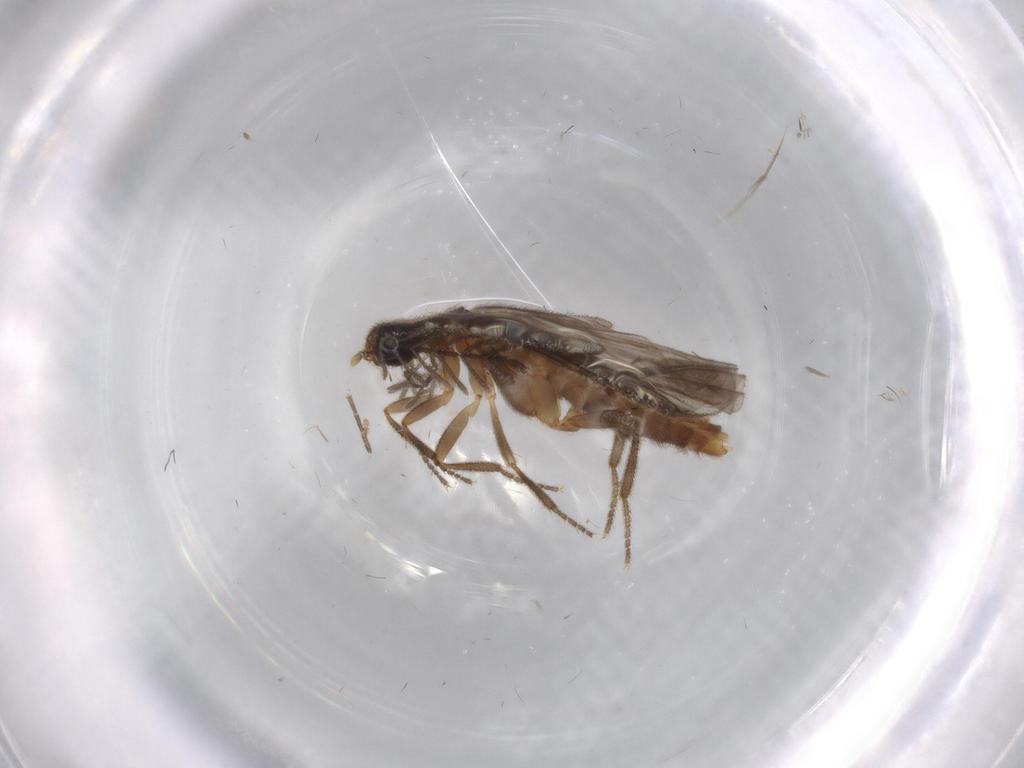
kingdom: Animalia
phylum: Arthropoda
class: Insecta
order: Coleoptera
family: Chrysomelidae
